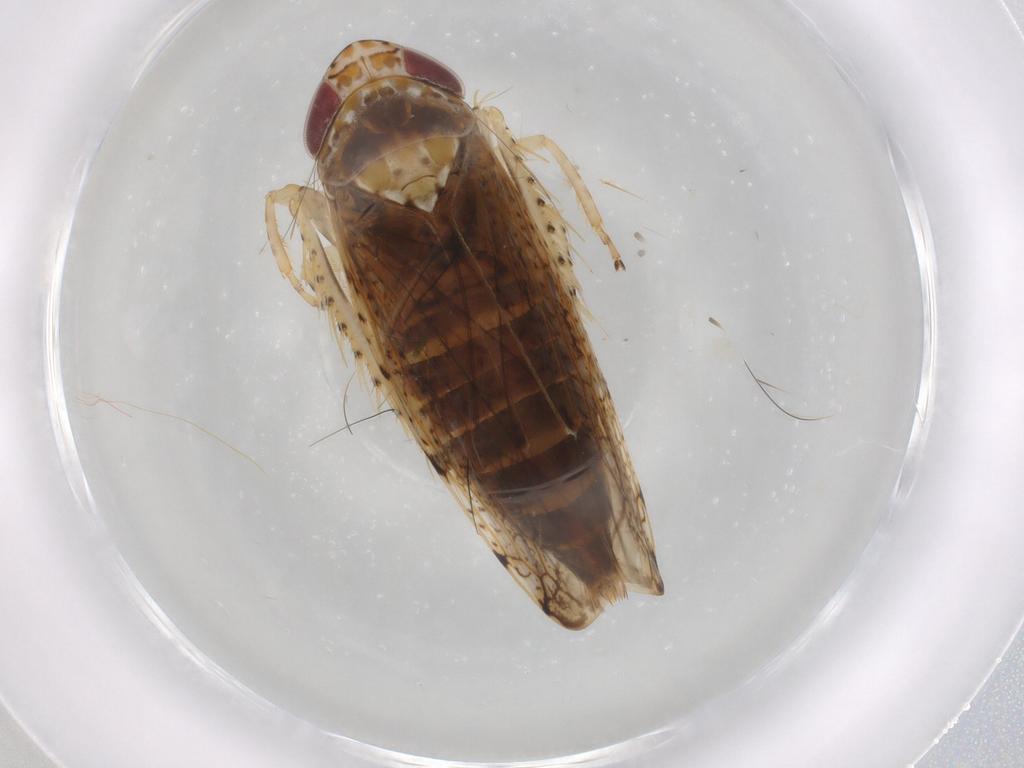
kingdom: Animalia
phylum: Arthropoda
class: Insecta
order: Hemiptera
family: Cicadellidae
